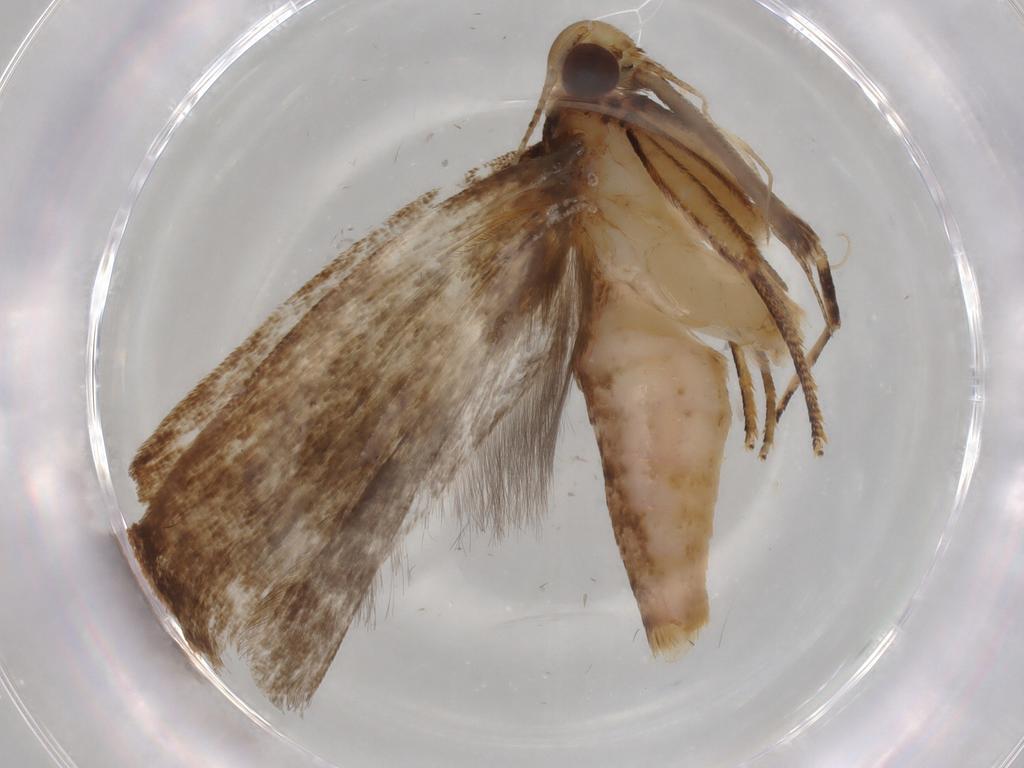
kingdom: Animalia
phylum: Arthropoda
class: Insecta
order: Lepidoptera
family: Gelechiidae
